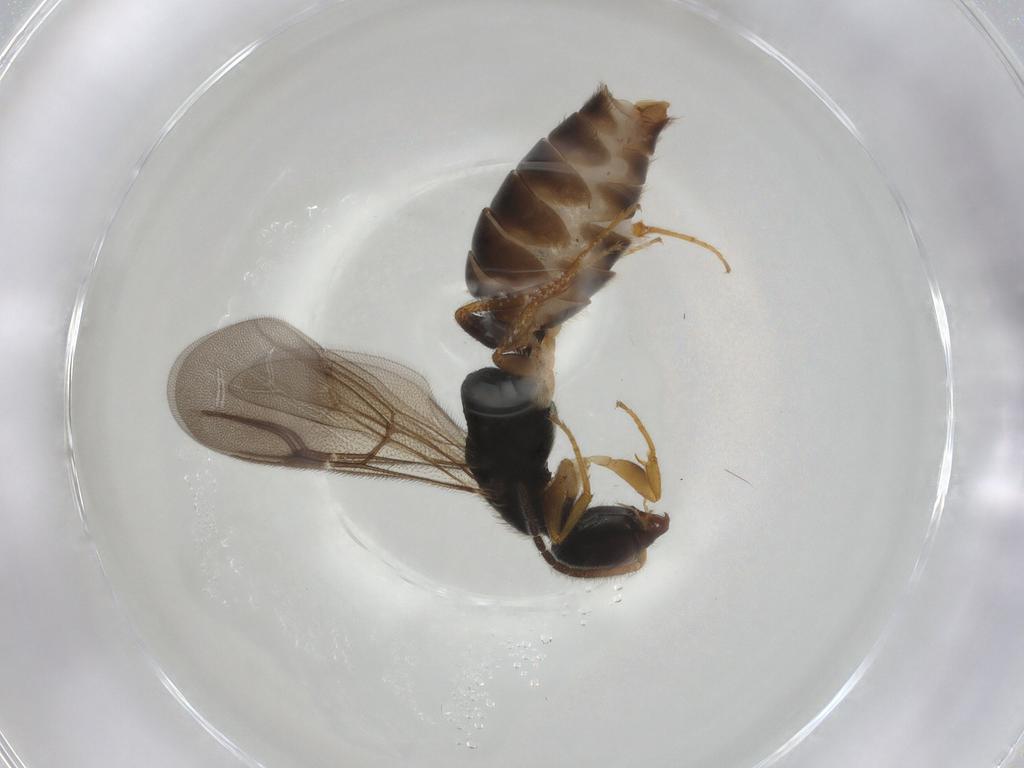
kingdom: Animalia
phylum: Arthropoda
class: Insecta
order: Hymenoptera
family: Bethylidae
